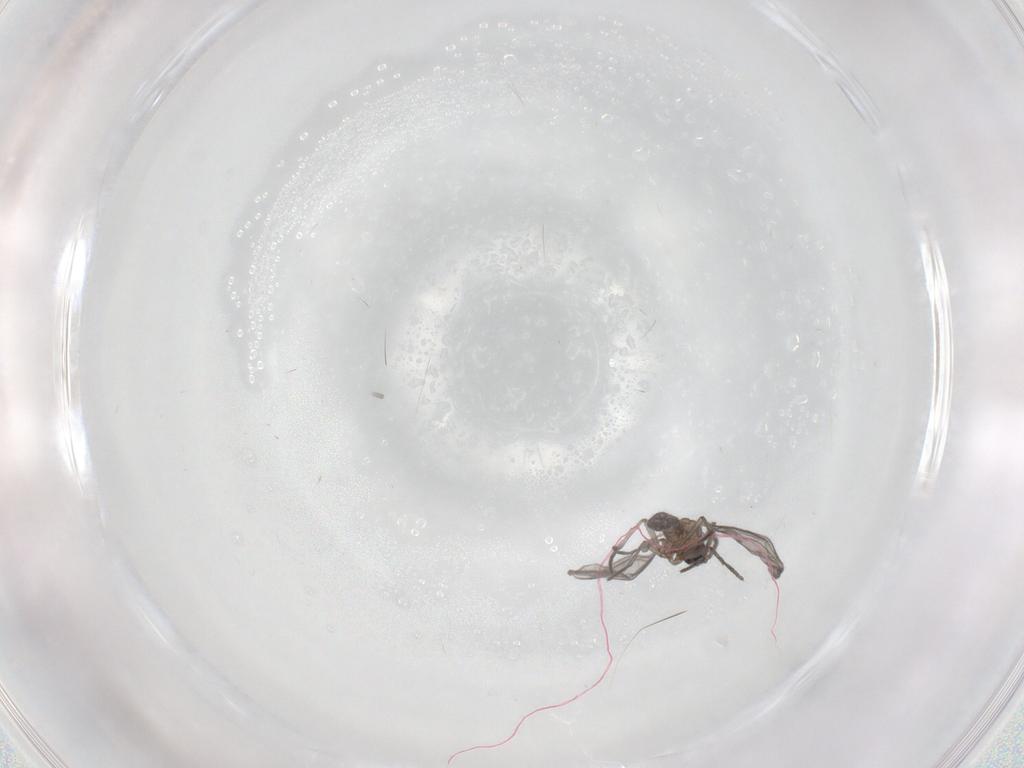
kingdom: Animalia
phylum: Arthropoda
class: Insecta
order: Diptera
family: Sciaridae
